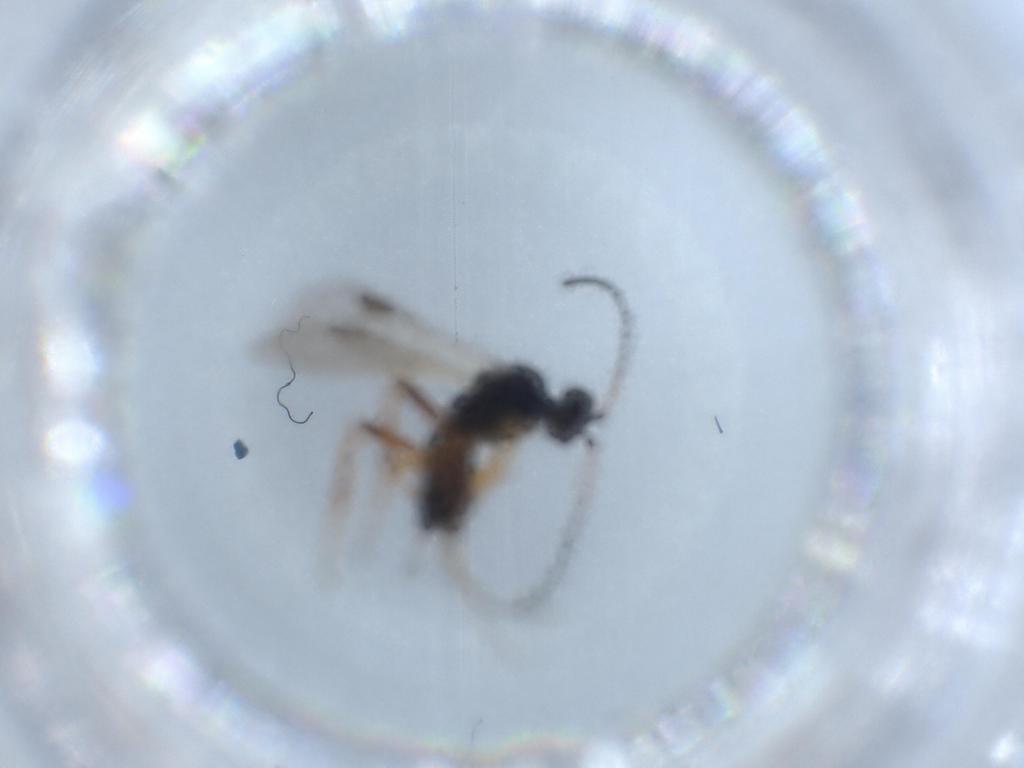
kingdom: Animalia
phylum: Arthropoda
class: Insecta
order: Hymenoptera
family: Braconidae
